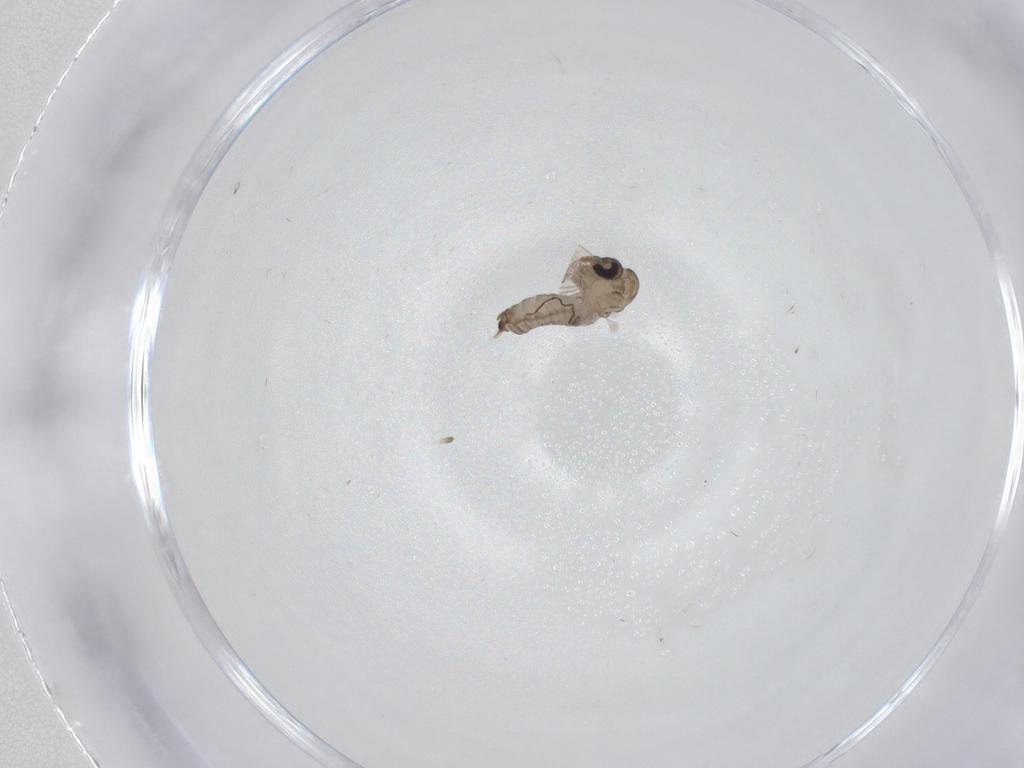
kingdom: Animalia
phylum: Arthropoda
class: Insecta
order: Diptera
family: Psychodidae
